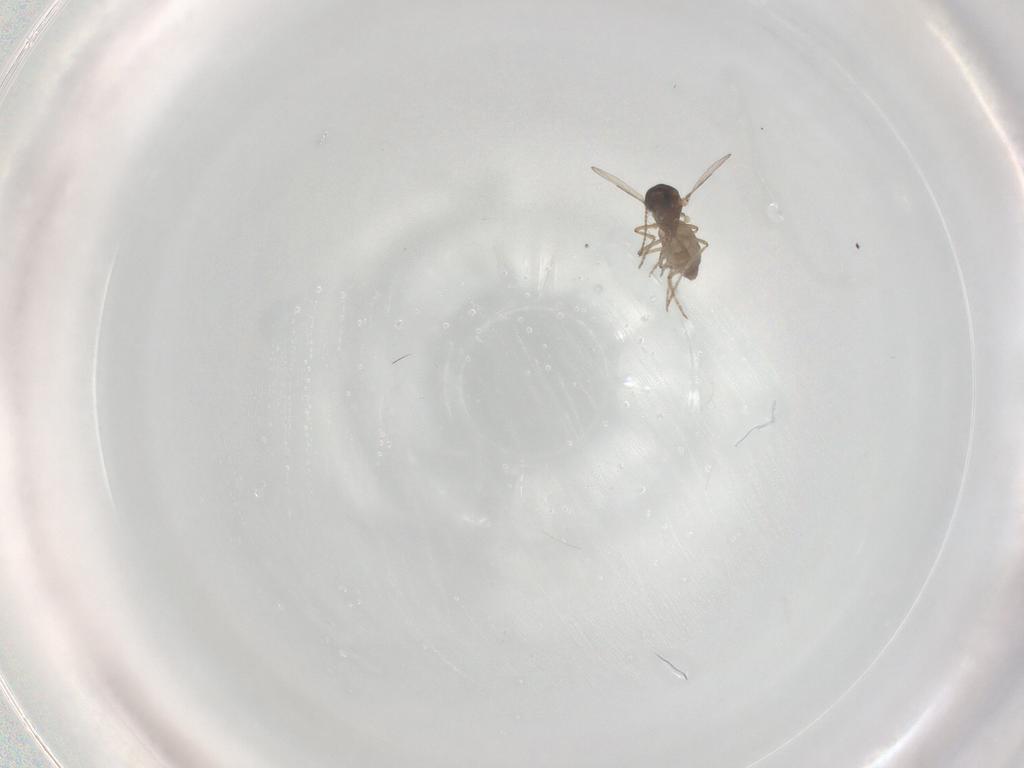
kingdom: Animalia
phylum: Arthropoda
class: Insecta
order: Diptera
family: Ceratopogonidae
